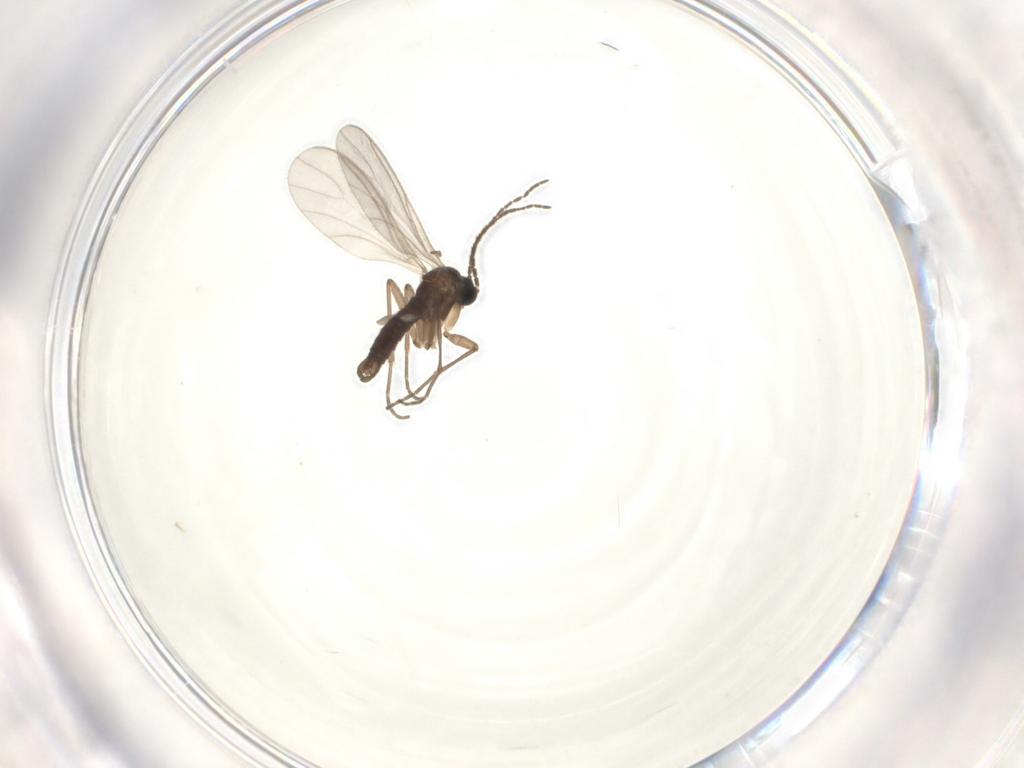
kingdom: Animalia
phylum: Arthropoda
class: Insecta
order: Diptera
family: Sciaridae
